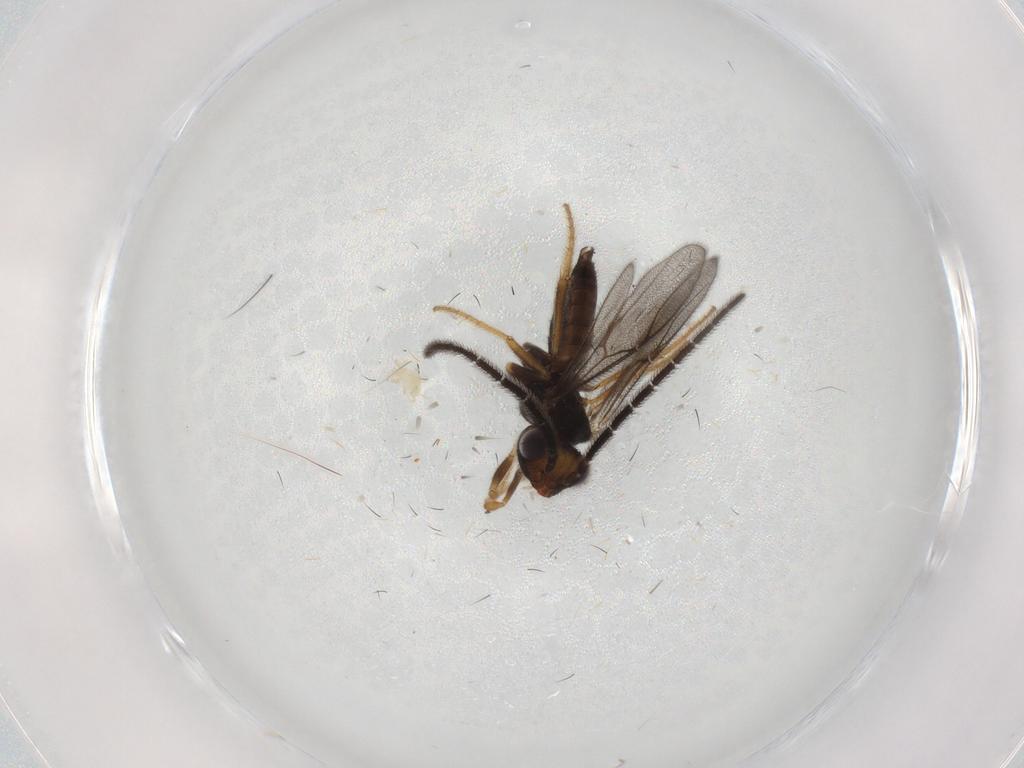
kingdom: Animalia
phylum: Arthropoda
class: Insecta
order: Hymenoptera
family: Dryinidae
